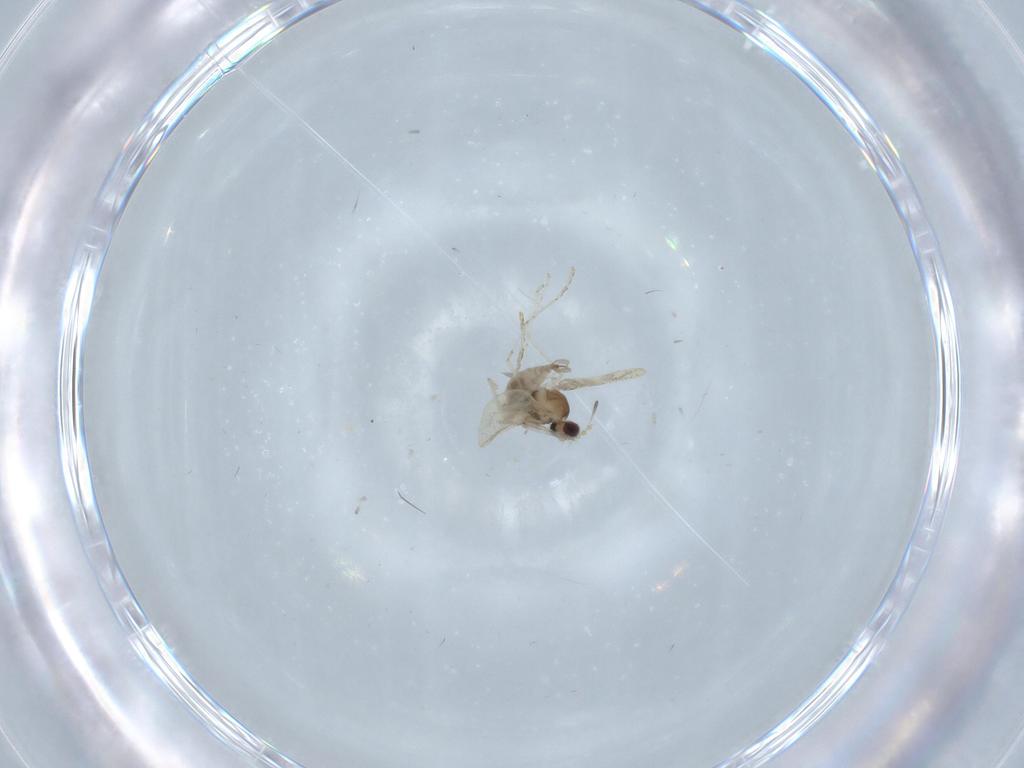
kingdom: Animalia
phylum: Arthropoda
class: Insecta
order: Diptera
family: Cecidomyiidae
